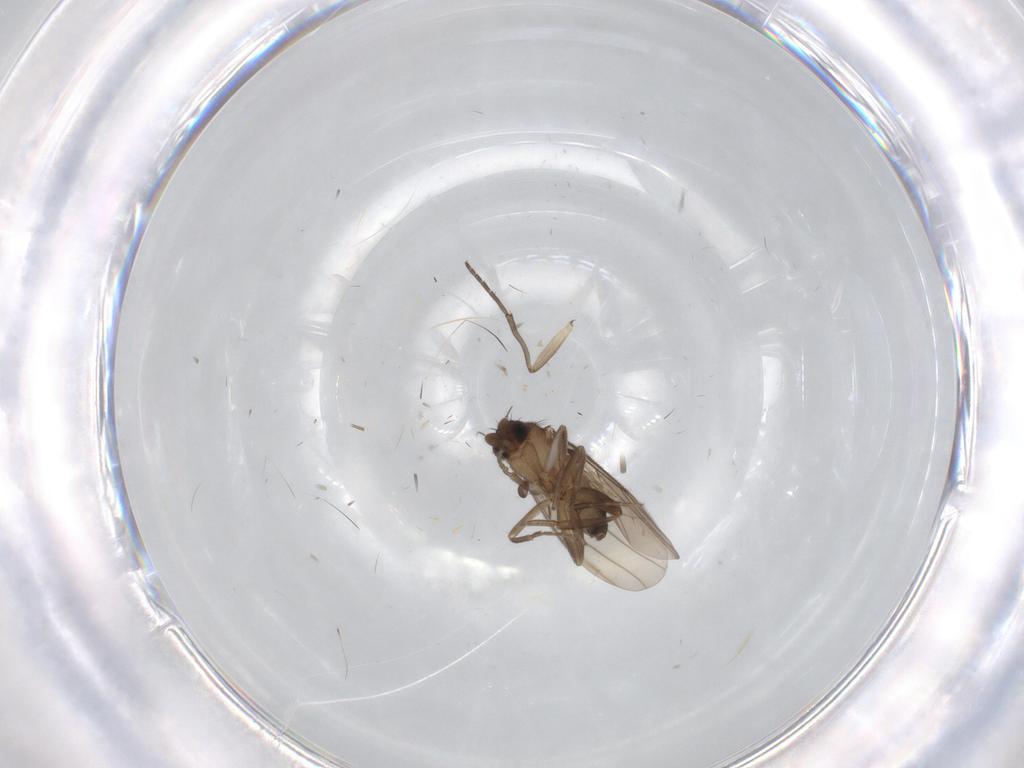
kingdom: Animalia
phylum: Arthropoda
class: Insecta
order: Diptera
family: Sciaridae
